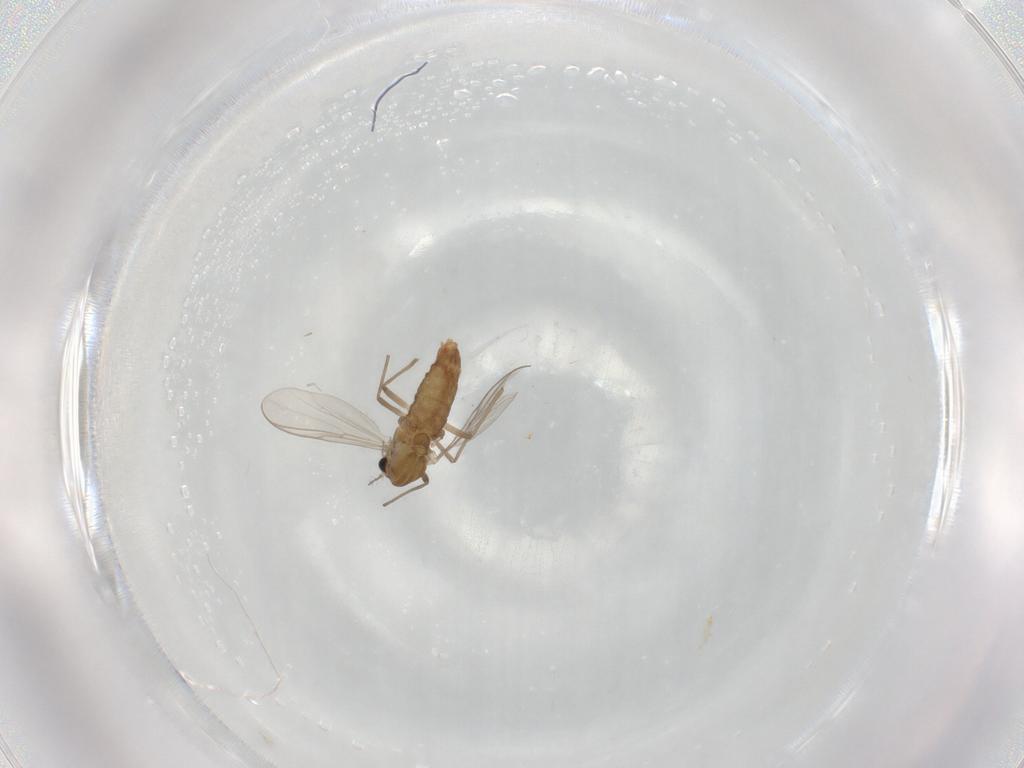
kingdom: Animalia
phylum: Arthropoda
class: Insecta
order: Diptera
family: Chironomidae
